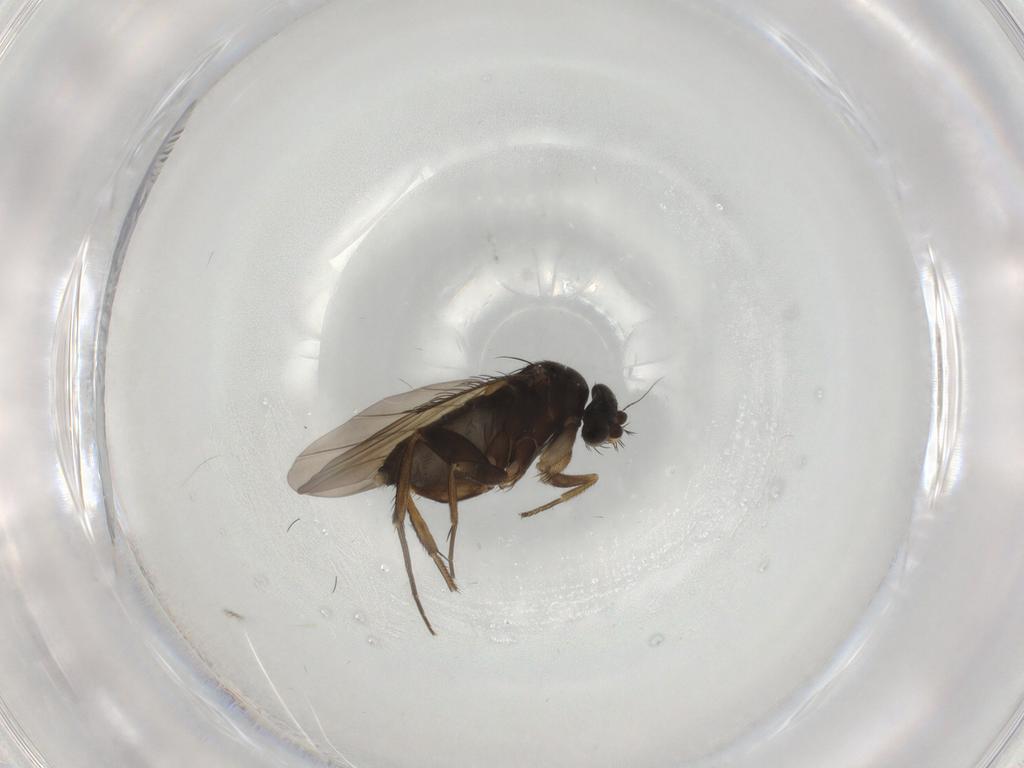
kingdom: Animalia
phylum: Arthropoda
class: Insecta
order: Diptera
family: Phoridae
